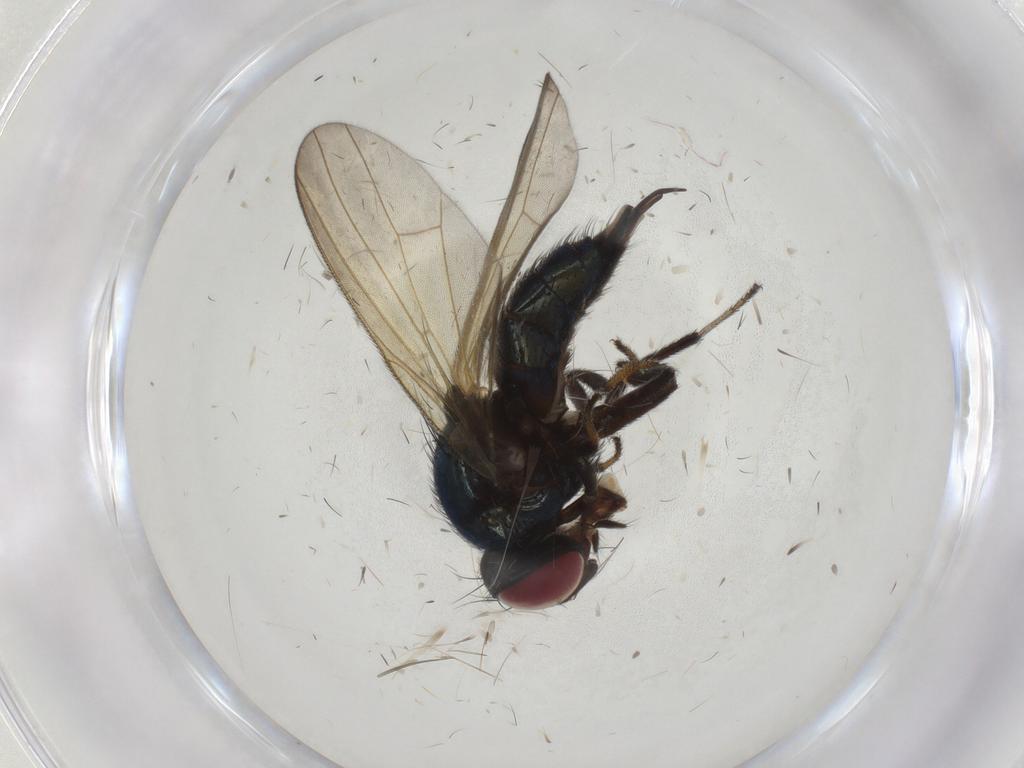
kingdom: Animalia
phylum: Arthropoda
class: Insecta
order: Diptera
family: Lonchaeidae
